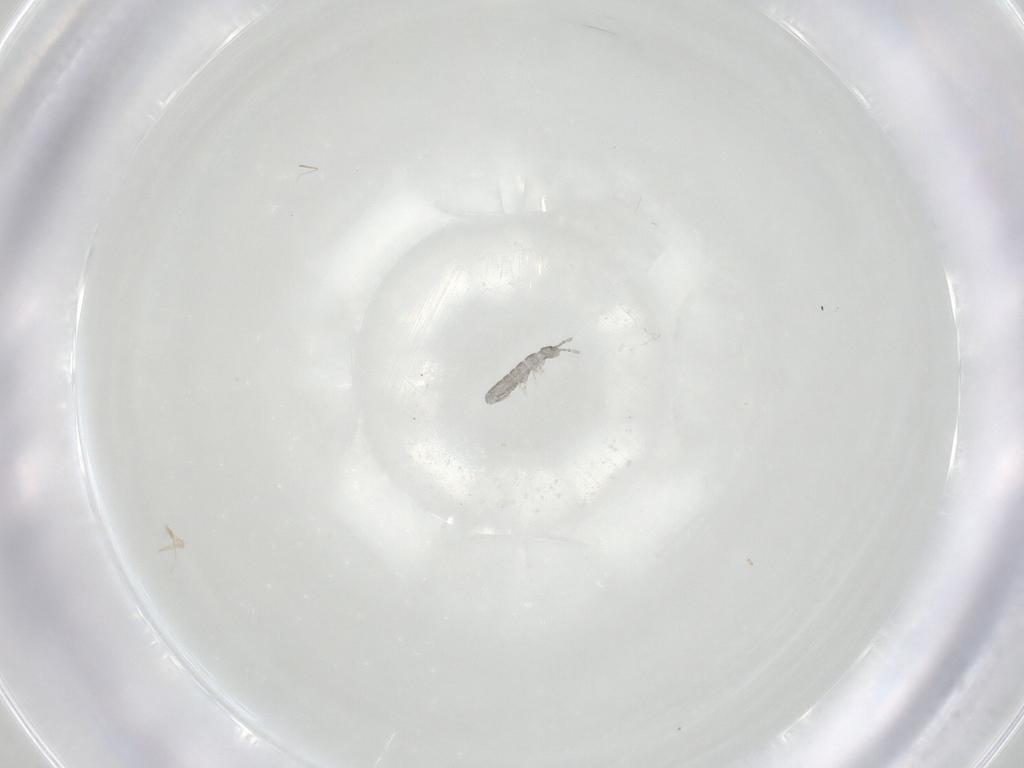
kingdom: Animalia
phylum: Arthropoda
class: Collembola
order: Entomobryomorpha
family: Isotomidae
